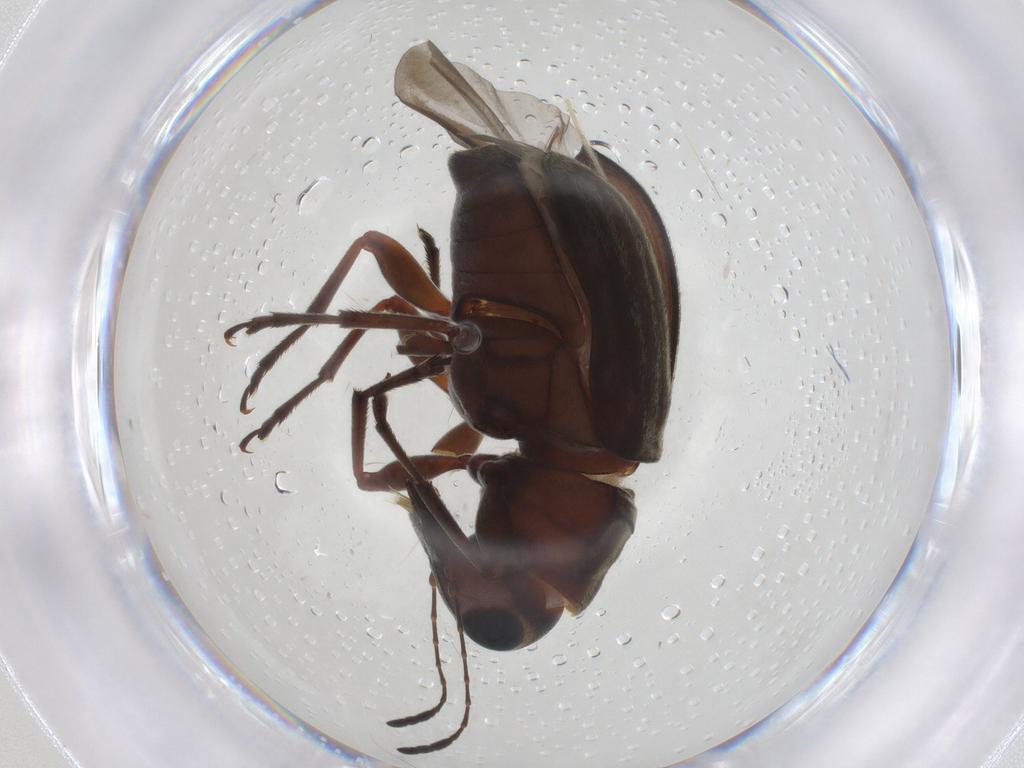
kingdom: Animalia
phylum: Arthropoda
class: Insecta
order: Coleoptera
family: Anthribidae
